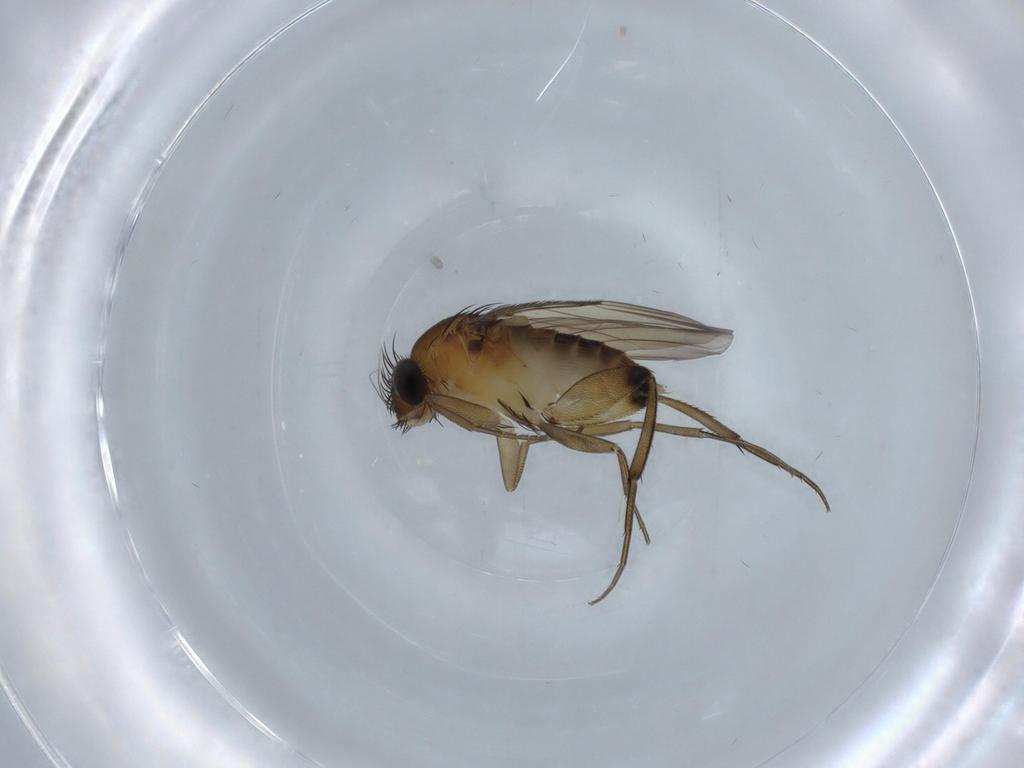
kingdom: Animalia
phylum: Arthropoda
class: Insecta
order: Diptera
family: Phoridae
